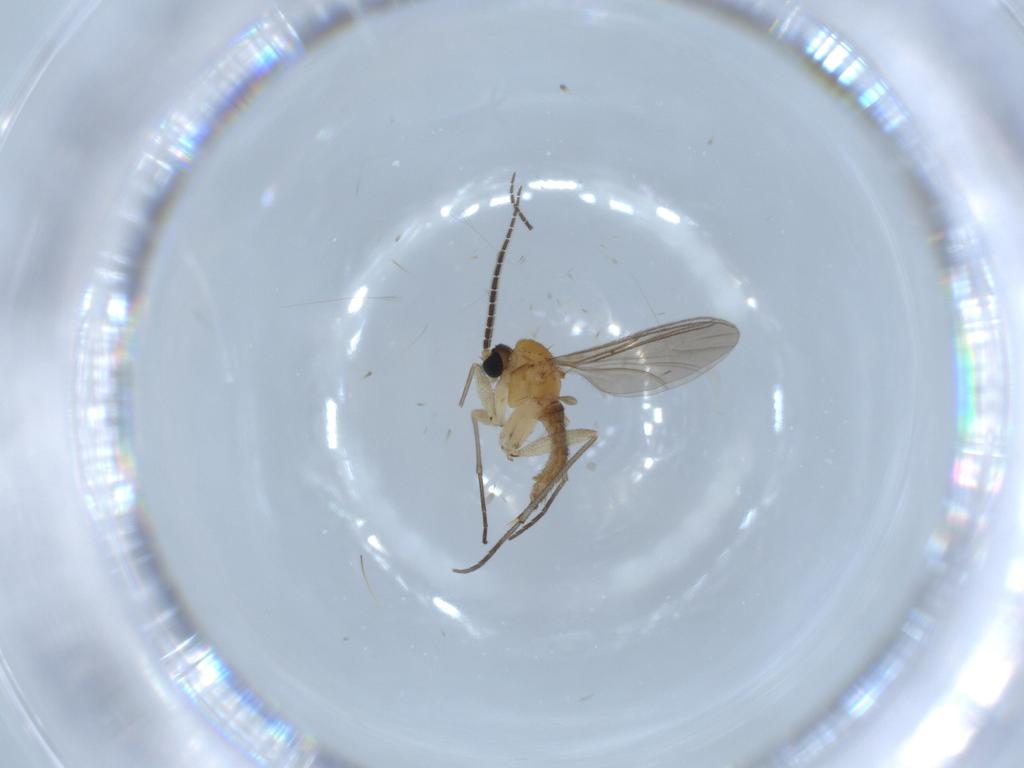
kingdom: Animalia
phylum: Arthropoda
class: Insecta
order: Diptera
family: Sciaridae
